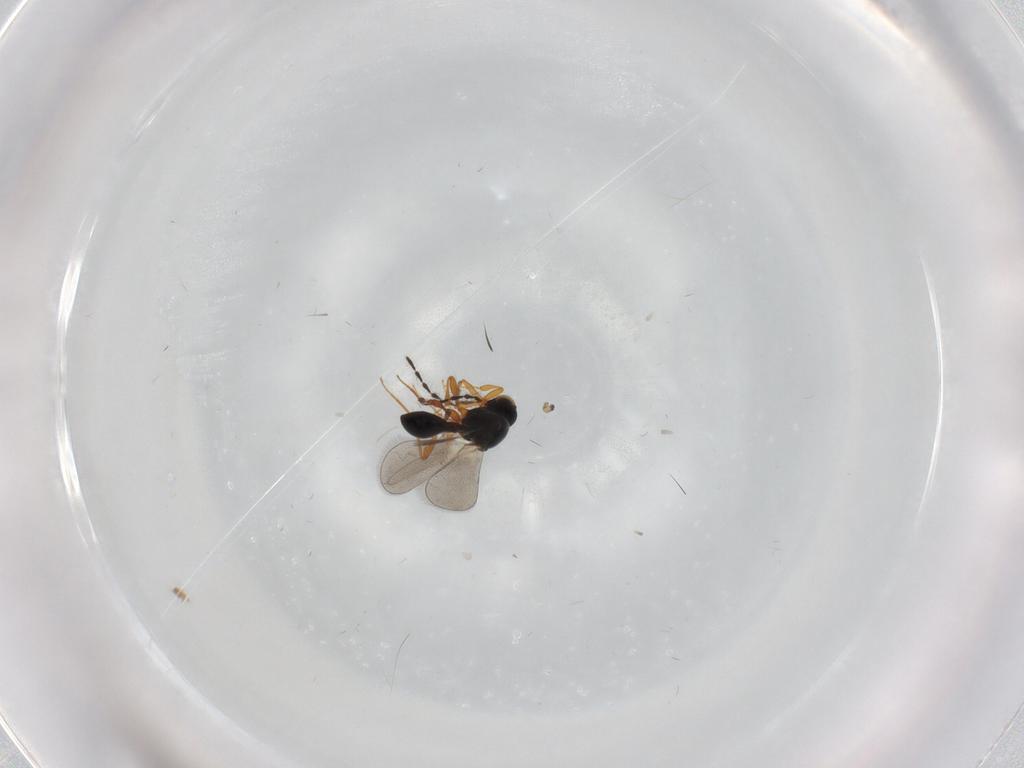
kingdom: Animalia
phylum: Arthropoda
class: Insecta
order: Hymenoptera
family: Platygastridae
